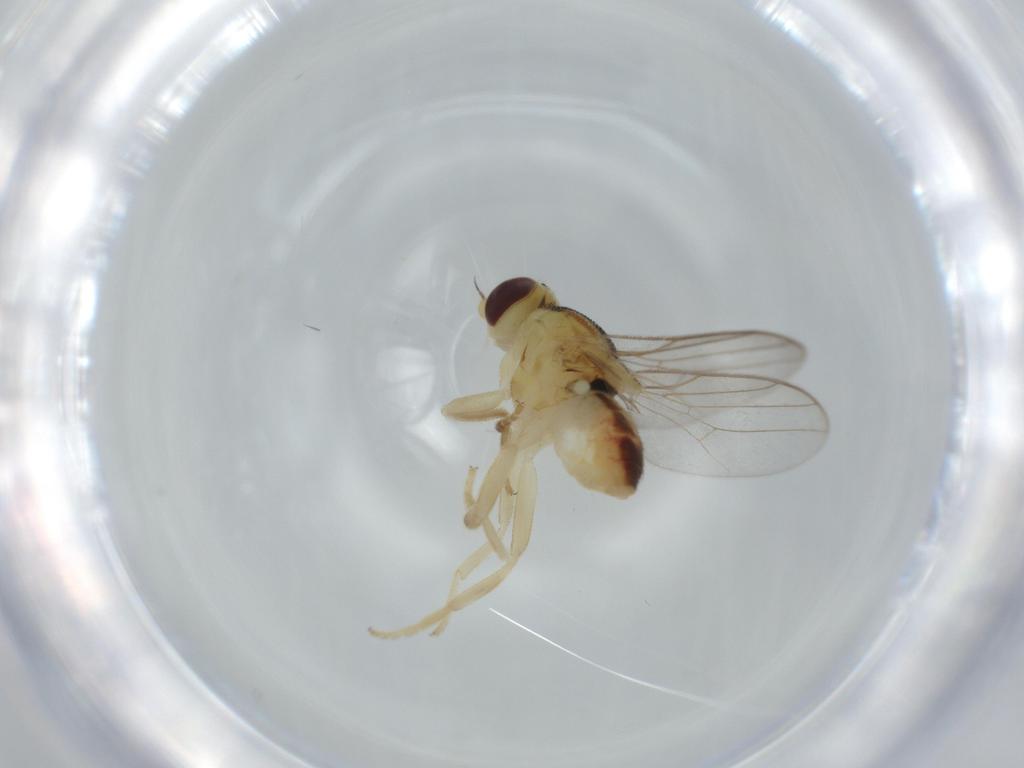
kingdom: Animalia
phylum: Arthropoda
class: Insecta
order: Diptera
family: Chloropidae
